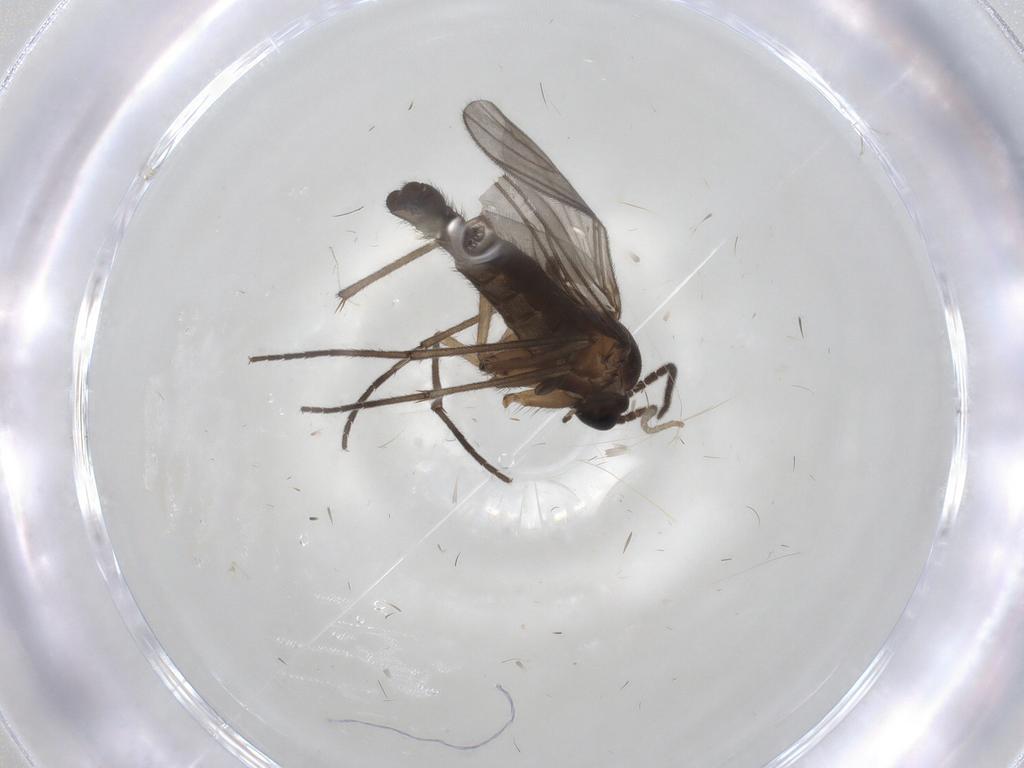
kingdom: Animalia
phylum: Arthropoda
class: Insecta
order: Diptera
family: Sciaridae
